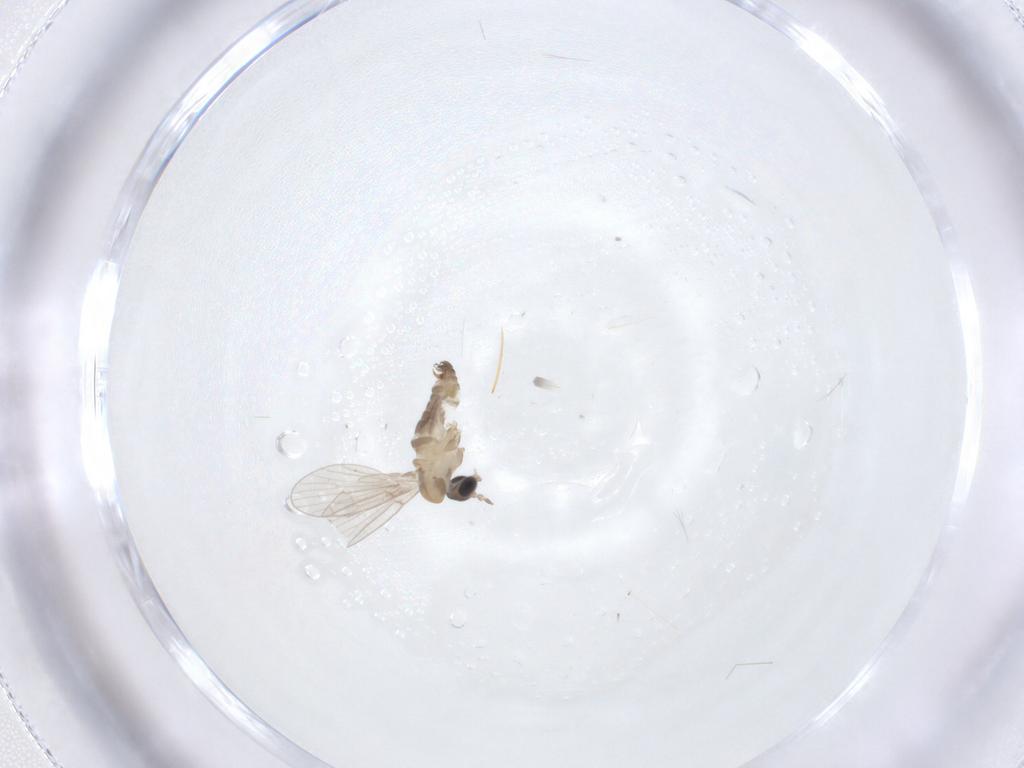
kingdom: Animalia
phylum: Arthropoda
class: Insecta
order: Diptera
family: Psychodidae
